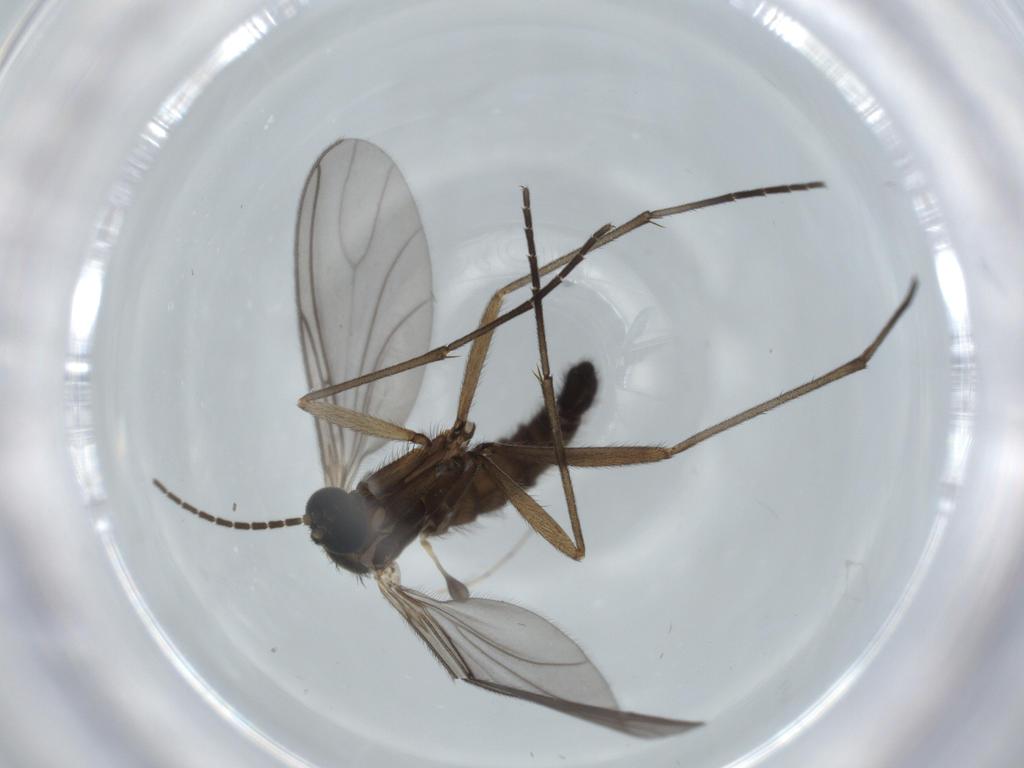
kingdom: Animalia
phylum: Arthropoda
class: Insecta
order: Diptera
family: Sciaridae
